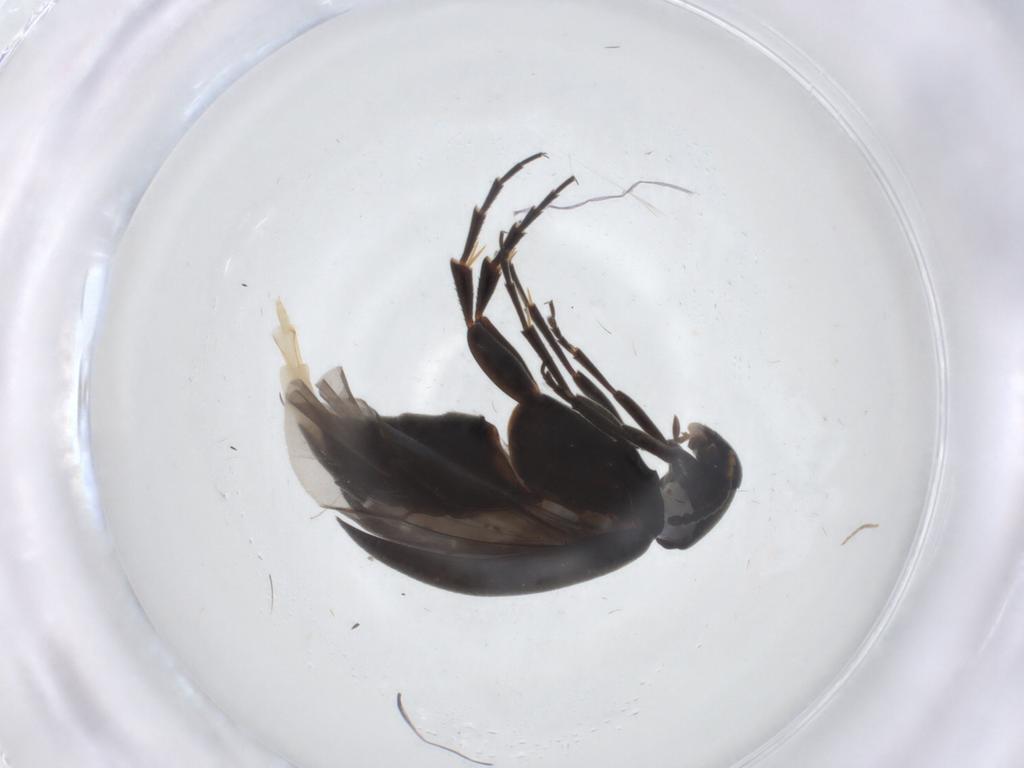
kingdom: Animalia
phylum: Arthropoda
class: Insecta
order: Coleoptera
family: Scraptiidae
